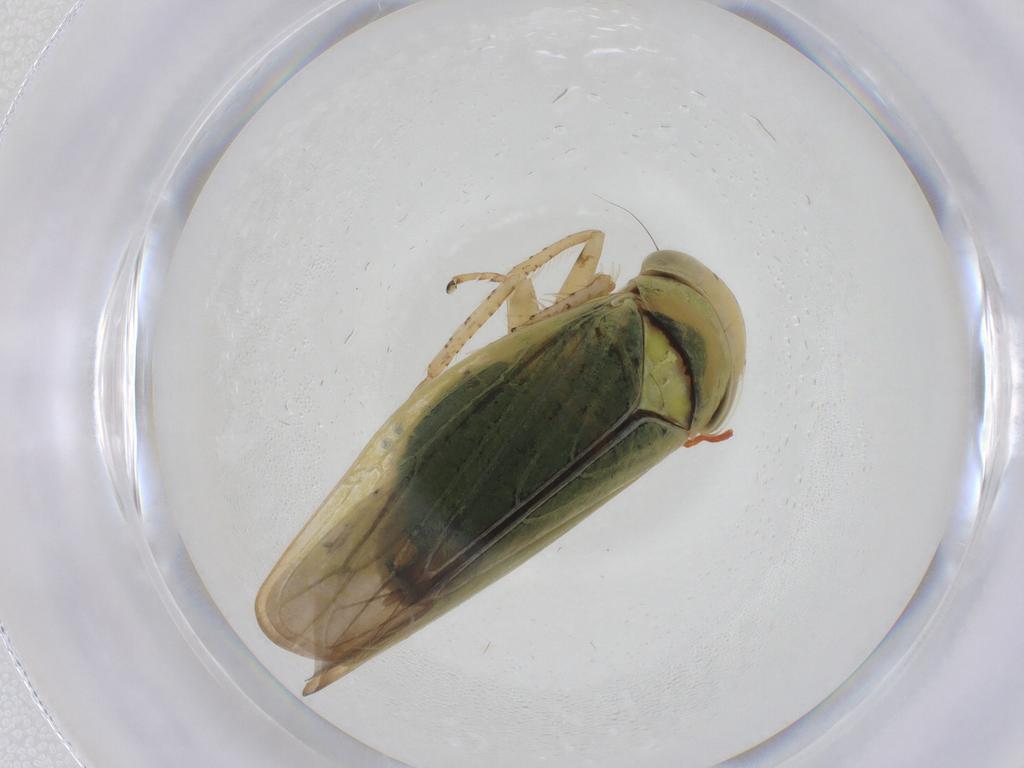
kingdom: Animalia
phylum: Arthropoda
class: Insecta
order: Hemiptera
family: Cicadellidae
